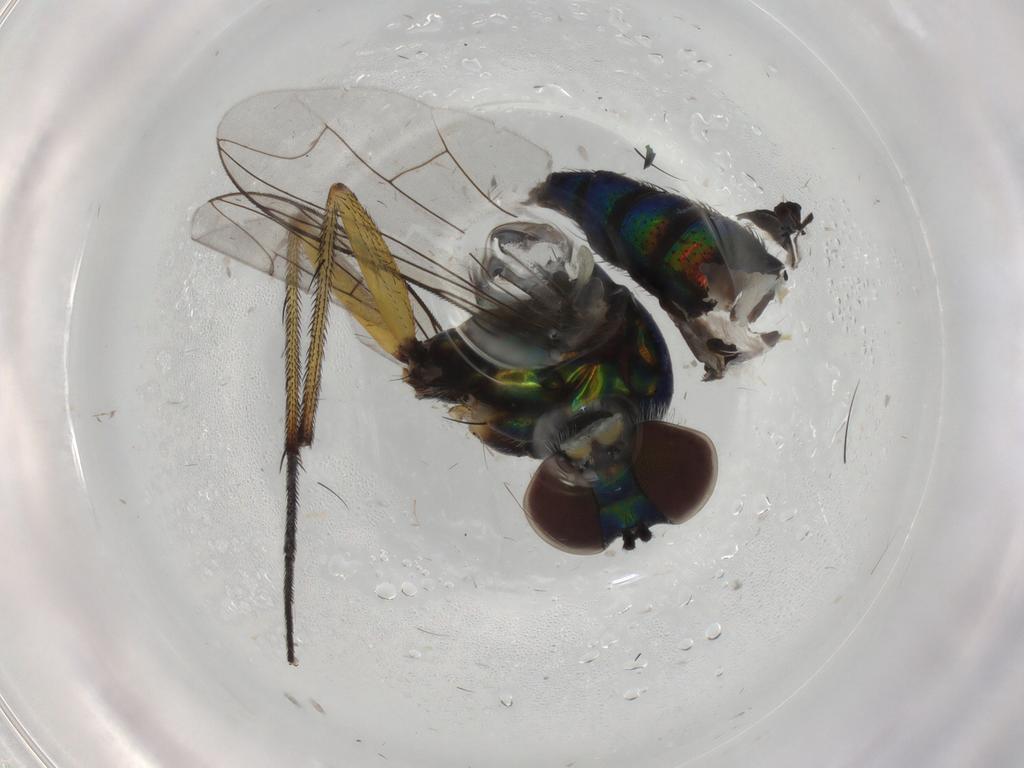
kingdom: Animalia
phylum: Arthropoda
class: Insecta
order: Diptera
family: Dolichopodidae
